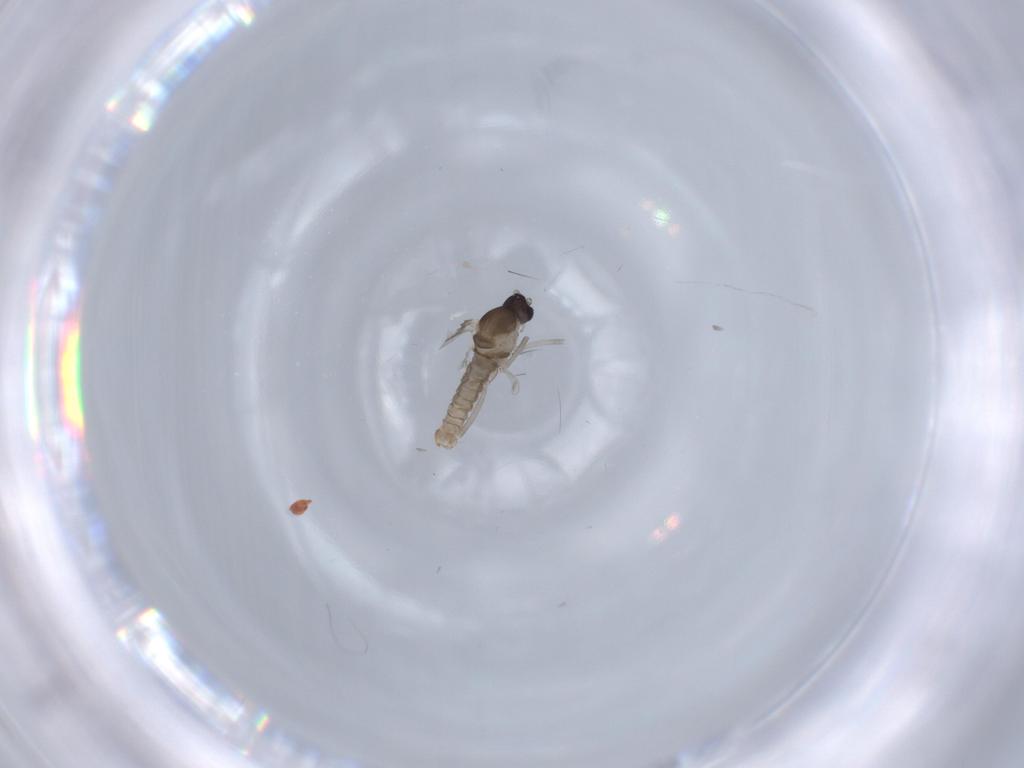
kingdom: Animalia
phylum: Arthropoda
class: Insecta
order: Diptera
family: Cecidomyiidae
